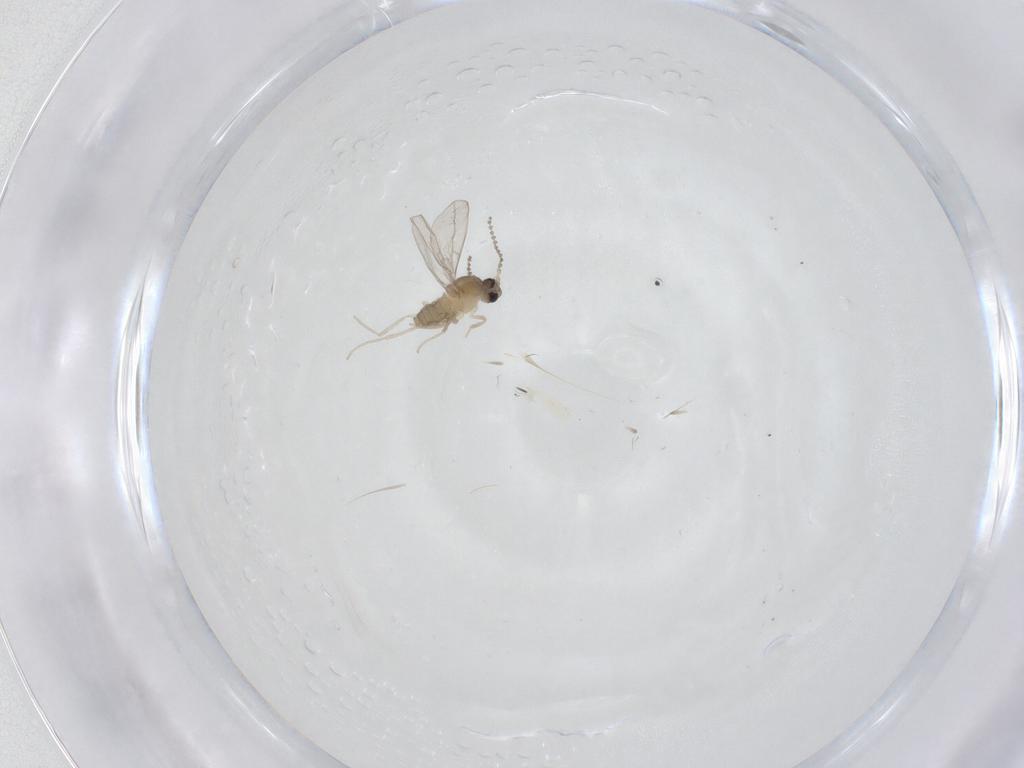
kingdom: Animalia
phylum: Arthropoda
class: Insecta
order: Diptera
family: Cecidomyiidae
